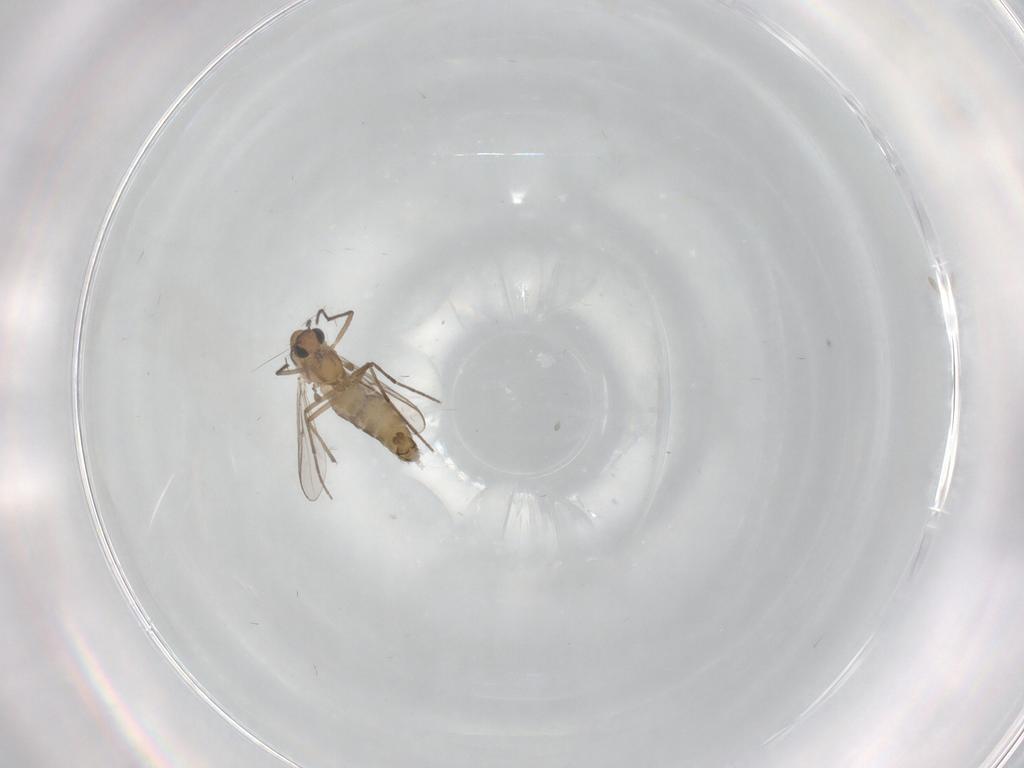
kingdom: Animalia
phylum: Arthropoda
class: Insecta
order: Diptera
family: Chironomidae
